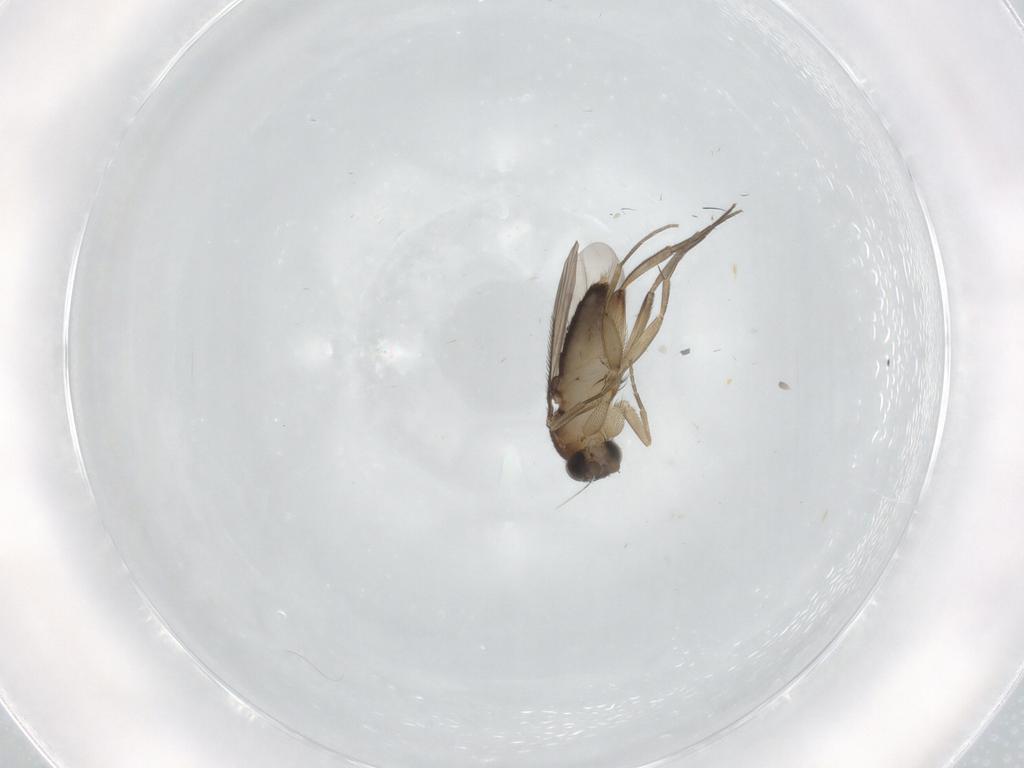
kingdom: Animalia
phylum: Arthropoda
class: Insecta
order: Diptera
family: Phoridae
